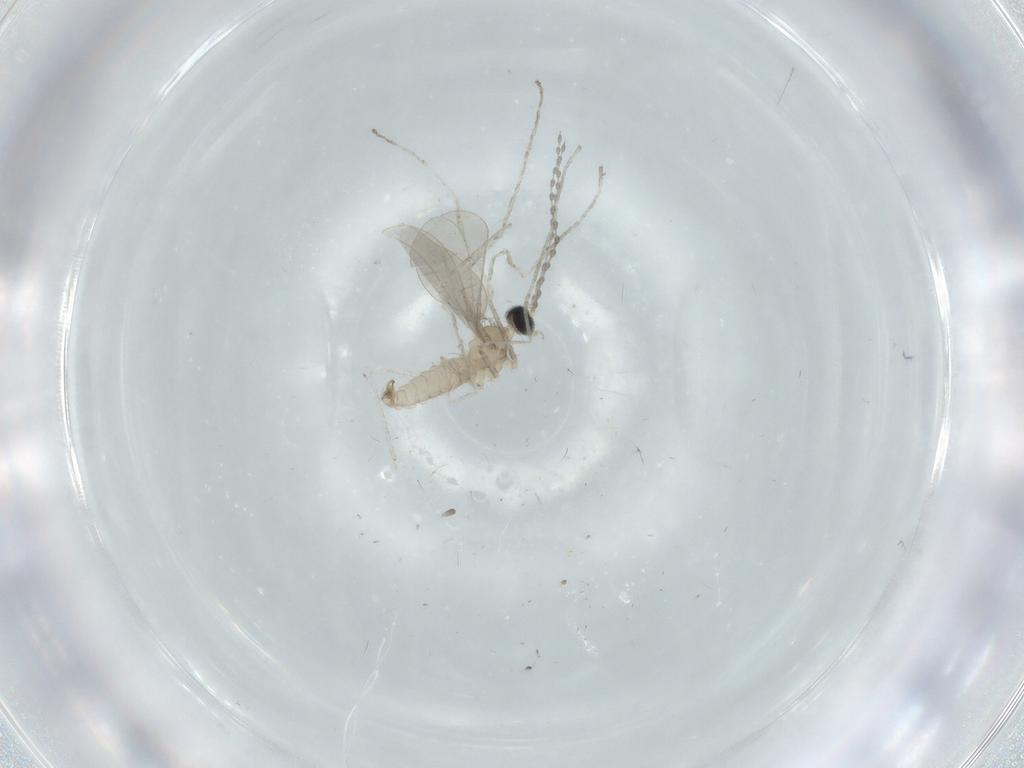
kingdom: Animalia
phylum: Arthropoda
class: Insecta
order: Diptera
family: Cecidomyiidae
